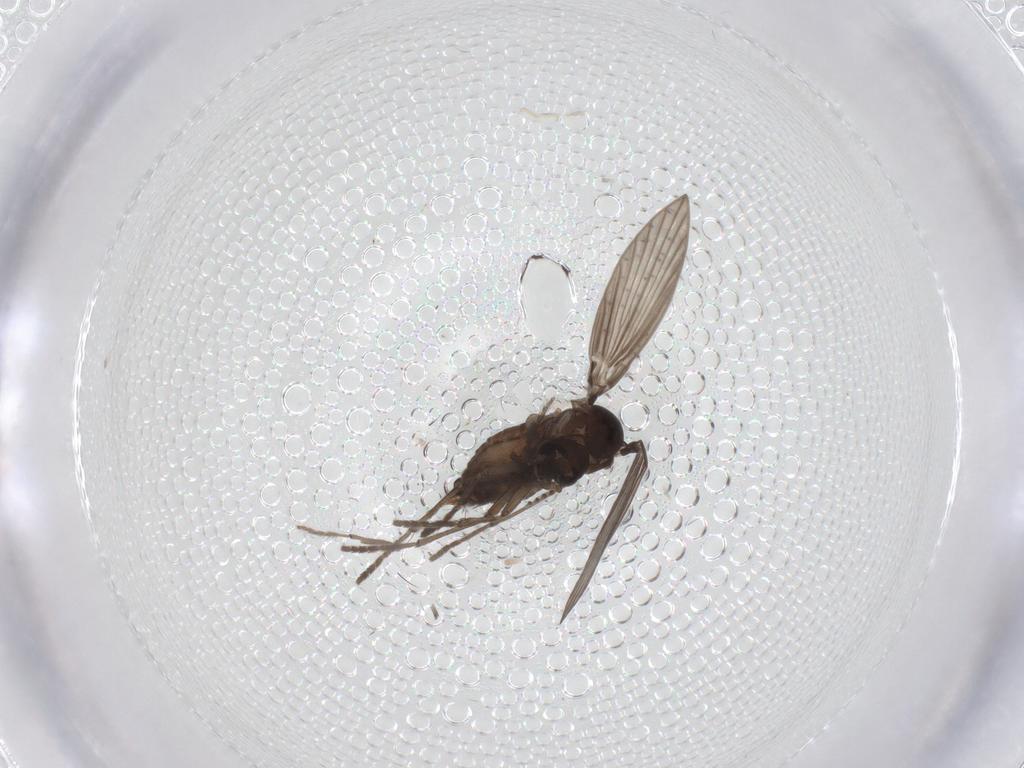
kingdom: Animalia
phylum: Arthropoda
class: Insecta
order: Diptera
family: Psychodidae
